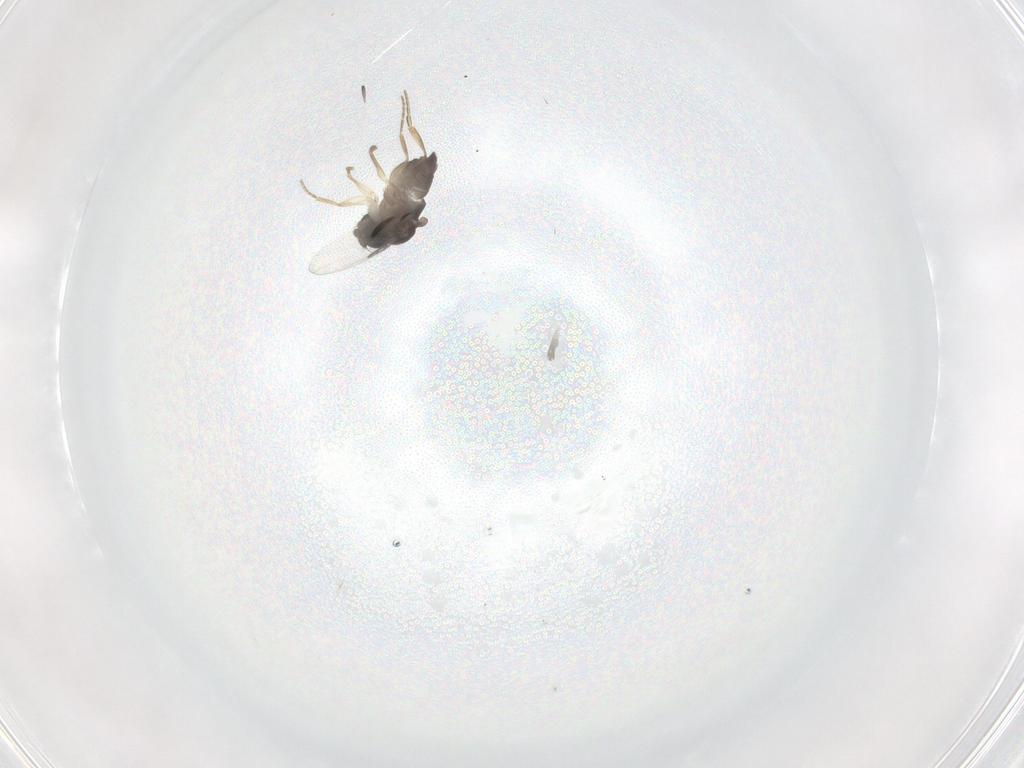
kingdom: Animalia
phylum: Arthropoda
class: Insecta
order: Diptera
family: Phoridae
